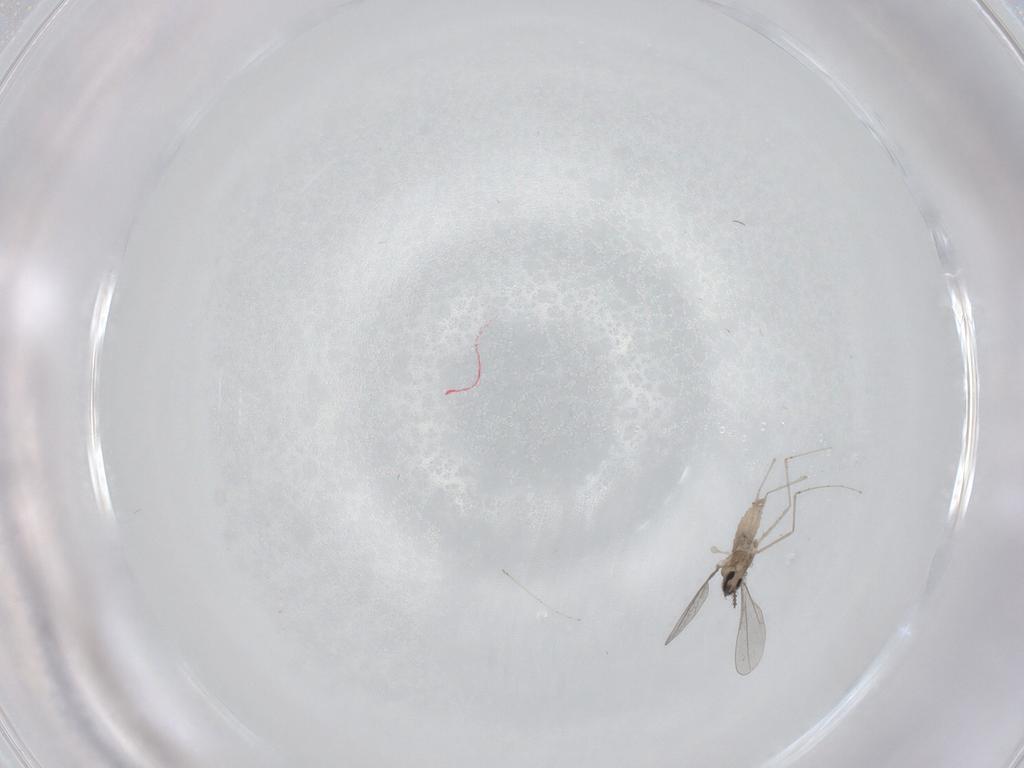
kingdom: Animalia
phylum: Arthropoda
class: Insecta
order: Diptera
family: Cecidomyiidae
